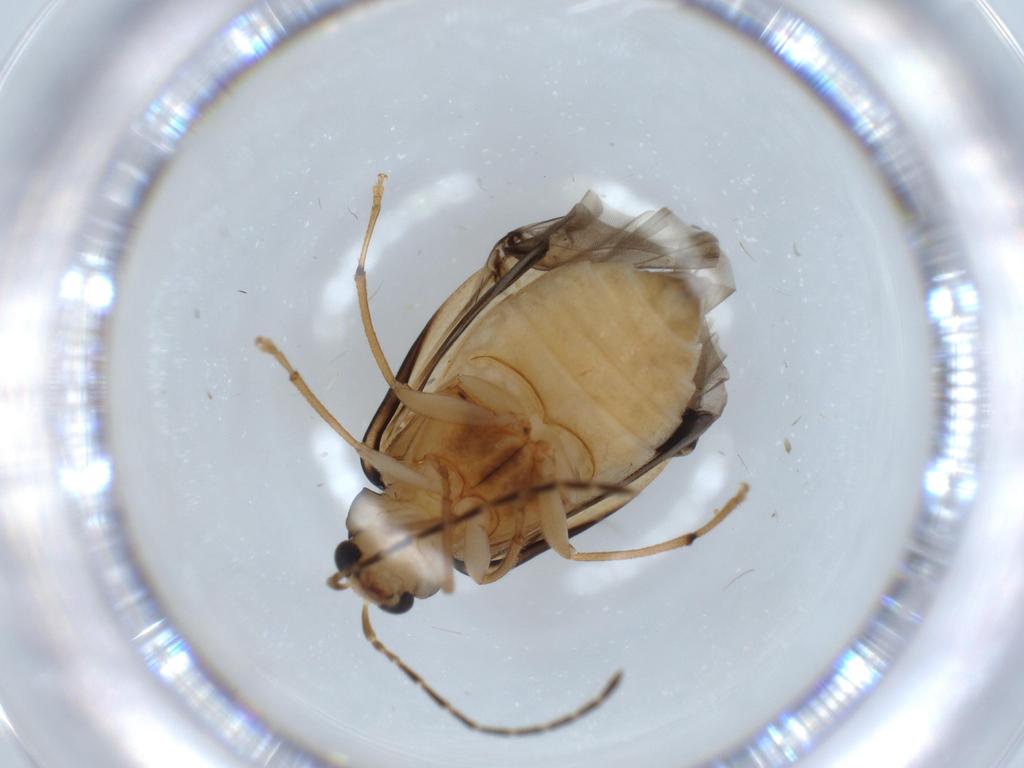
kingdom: Animalia
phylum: Arthropoda
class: Insecta
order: Coleoptera
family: Throscidae
